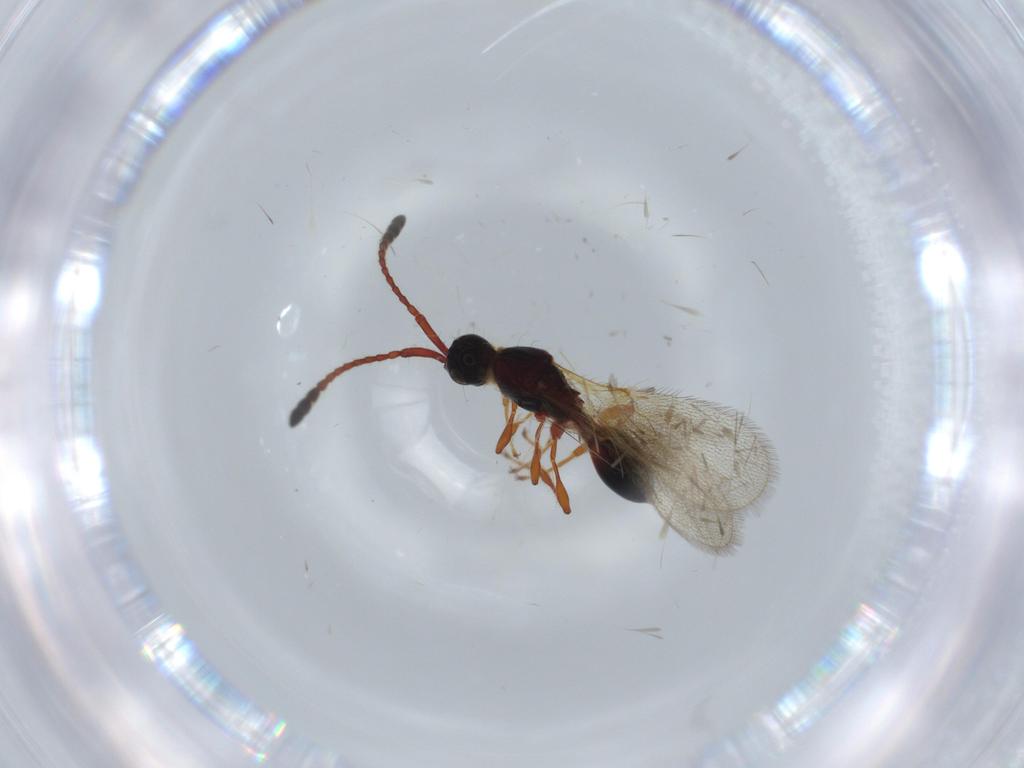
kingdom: Animalia
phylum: Arthropoda
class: Insecta
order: Hymenoptera
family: Diapriidae
